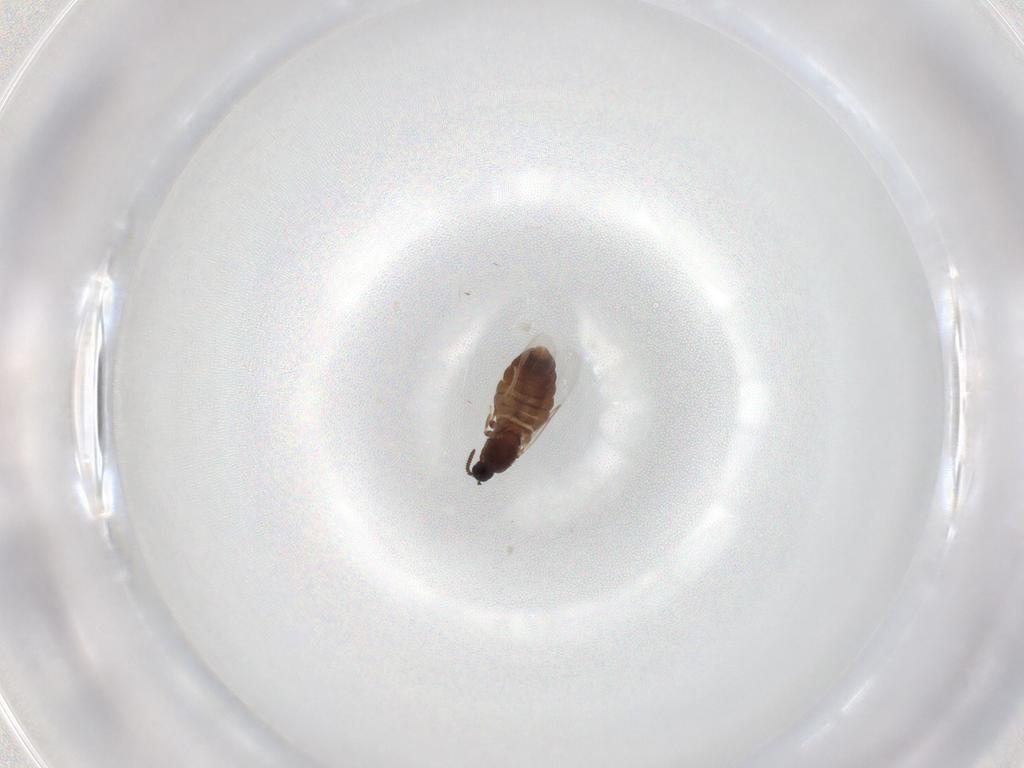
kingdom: Animalia
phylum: Arthropoda
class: Insecta
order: Diptera
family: Scatopsidae
